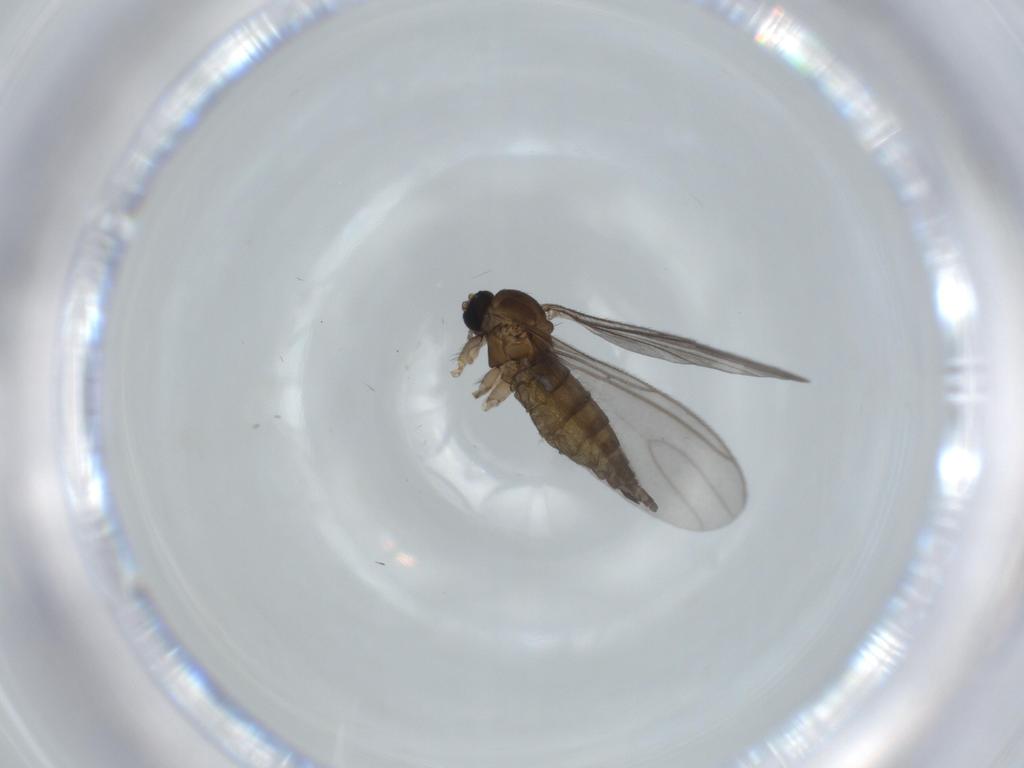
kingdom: Animalia
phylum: Arthropoda
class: Insecta
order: Diptera
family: Sciaridae
